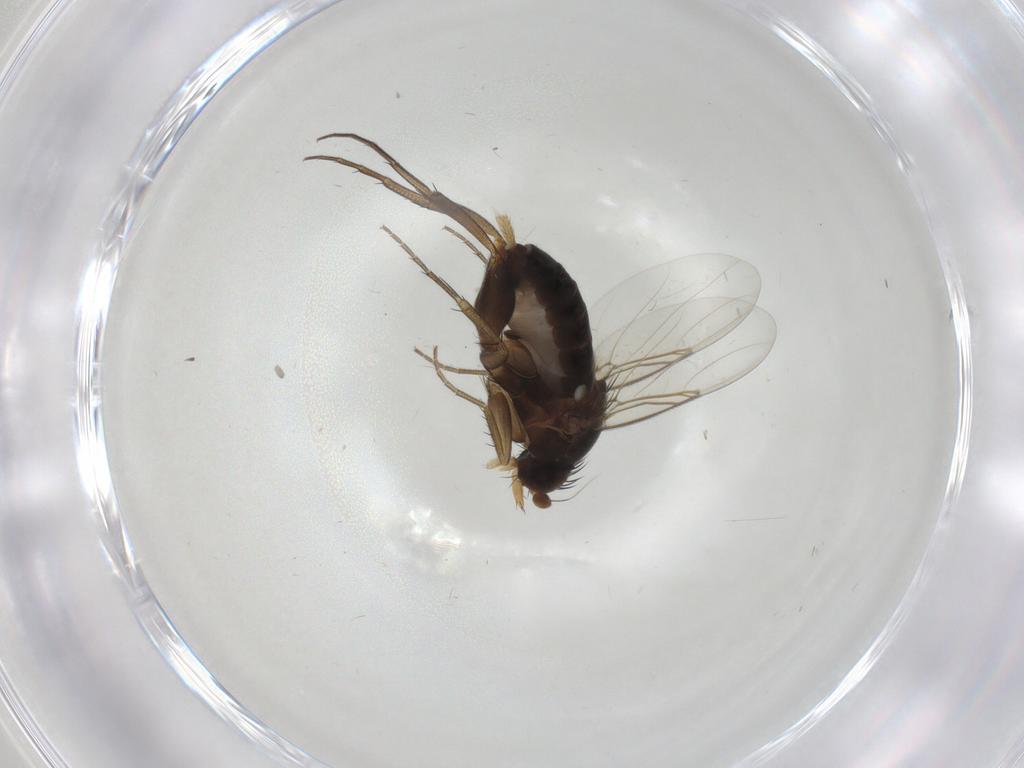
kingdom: Animalia
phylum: Arthropoda
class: Insecta
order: Diptera
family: Phoridae
